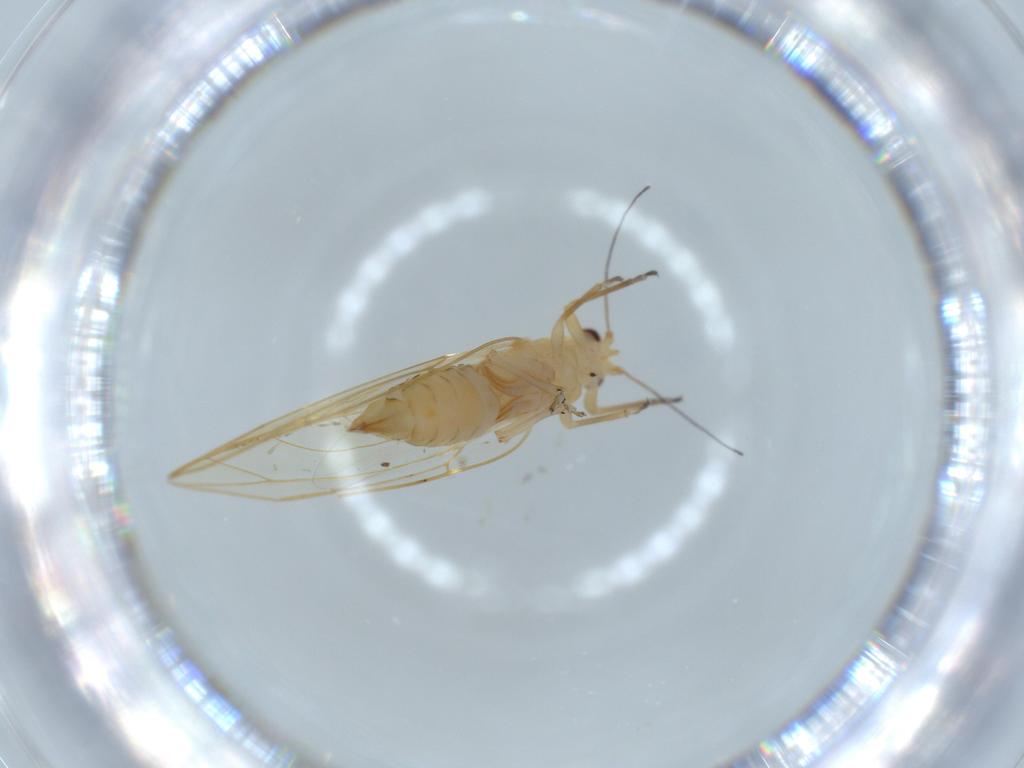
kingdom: Animalia
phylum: Arthropoda
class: Insecta
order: Hemiptera
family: Triozidae
